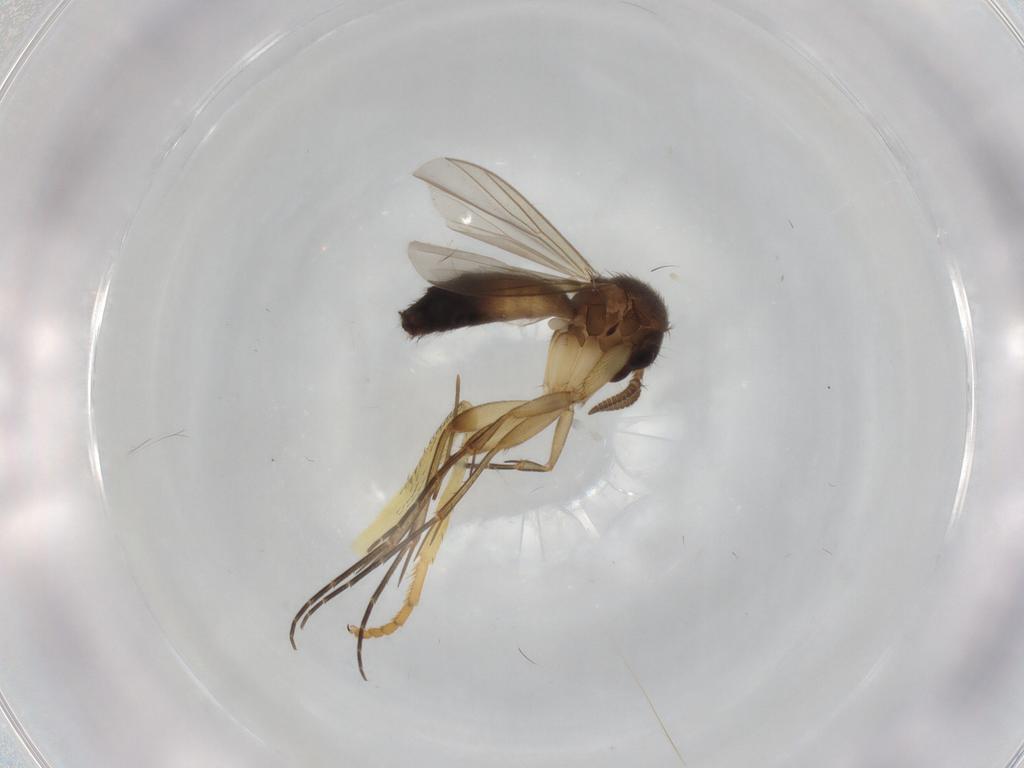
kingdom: Animalia
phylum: Arthropoda
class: Insecta
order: Diptera
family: Mycetophilidae
